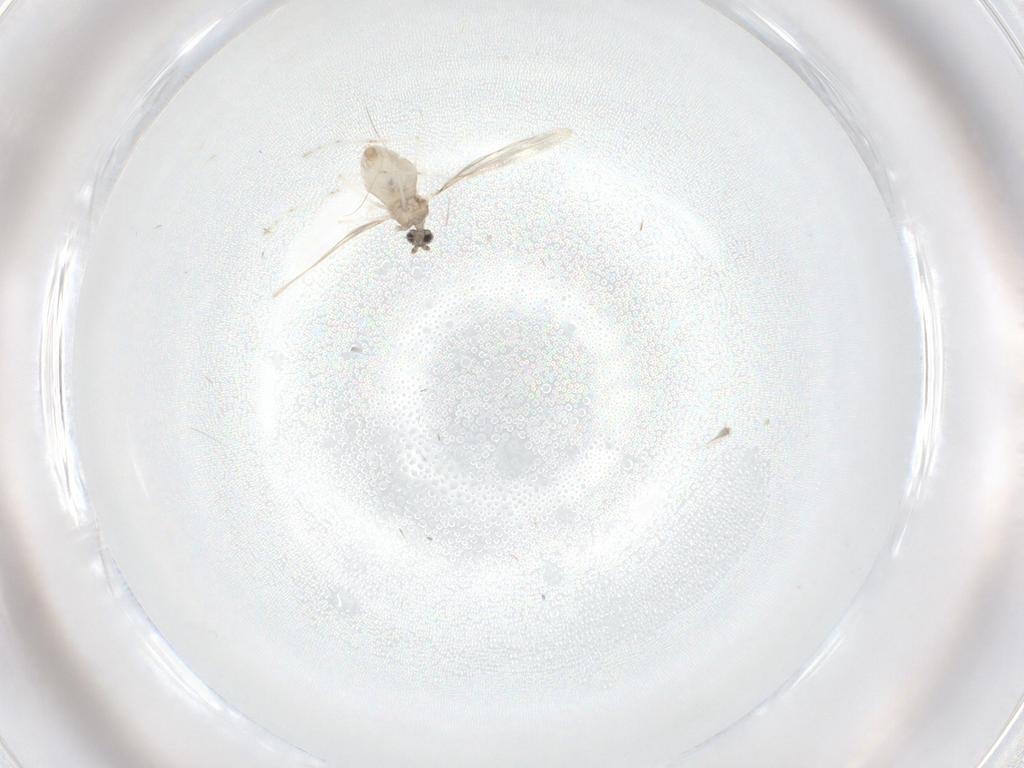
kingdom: Animalia
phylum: Arthropoda
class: Insecta
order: Diptera
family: Cecidomyiidae
